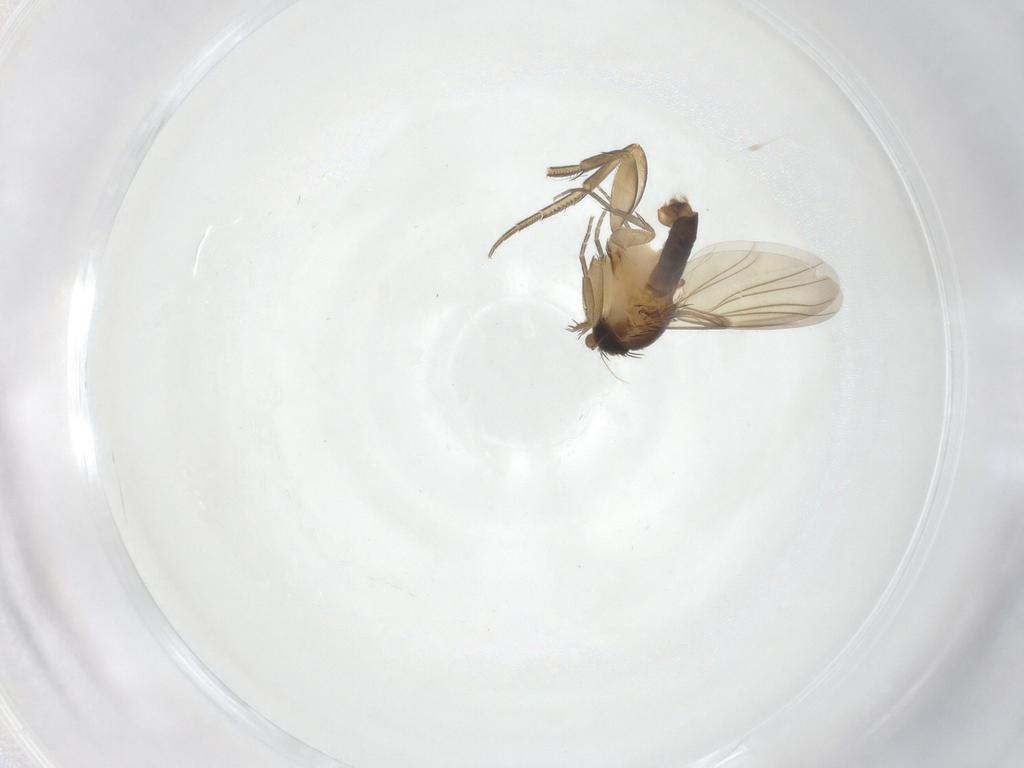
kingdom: Animalia
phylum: Arthropoda
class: Insecta
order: Diptera
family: Phoridae
